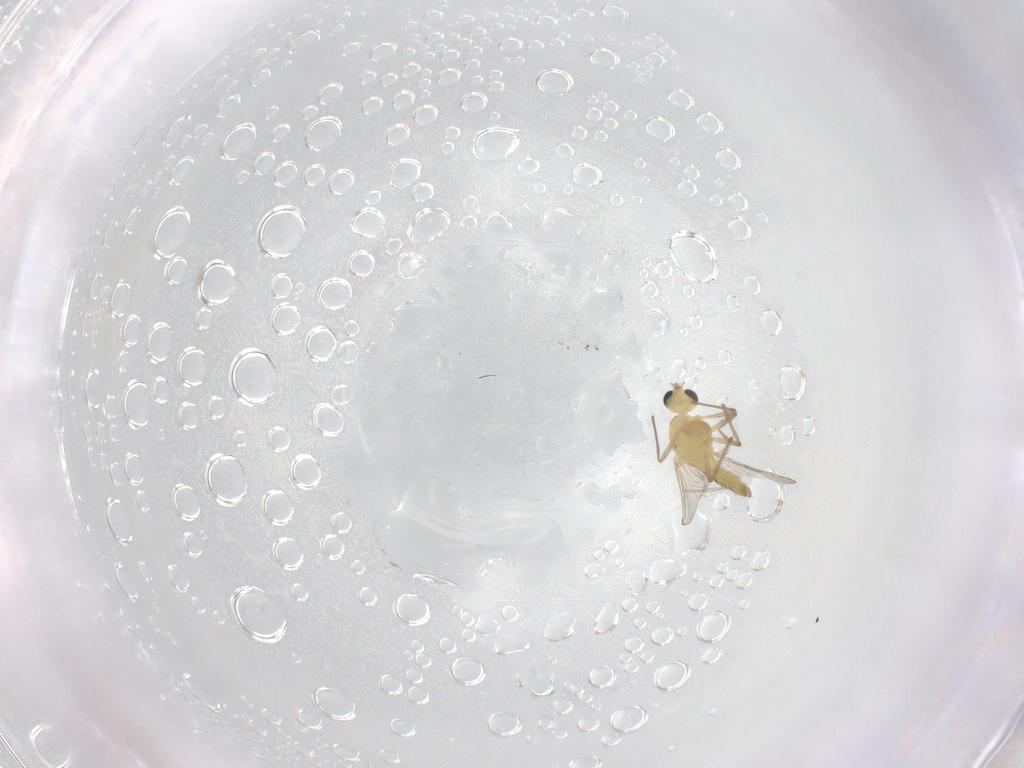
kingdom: Animalia
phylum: Arthropoda
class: Insecta
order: Diptera
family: Chironomidae
